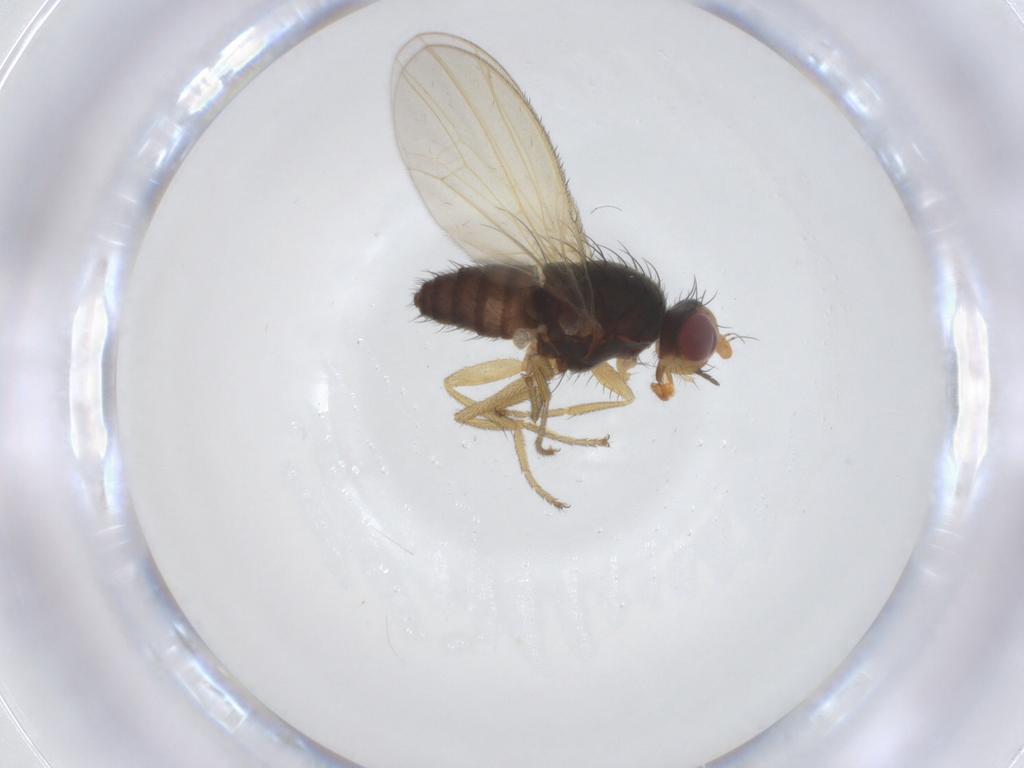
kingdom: Animalia
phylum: Arthropoda
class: Insecta
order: Diptera
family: Heleomyzidae
